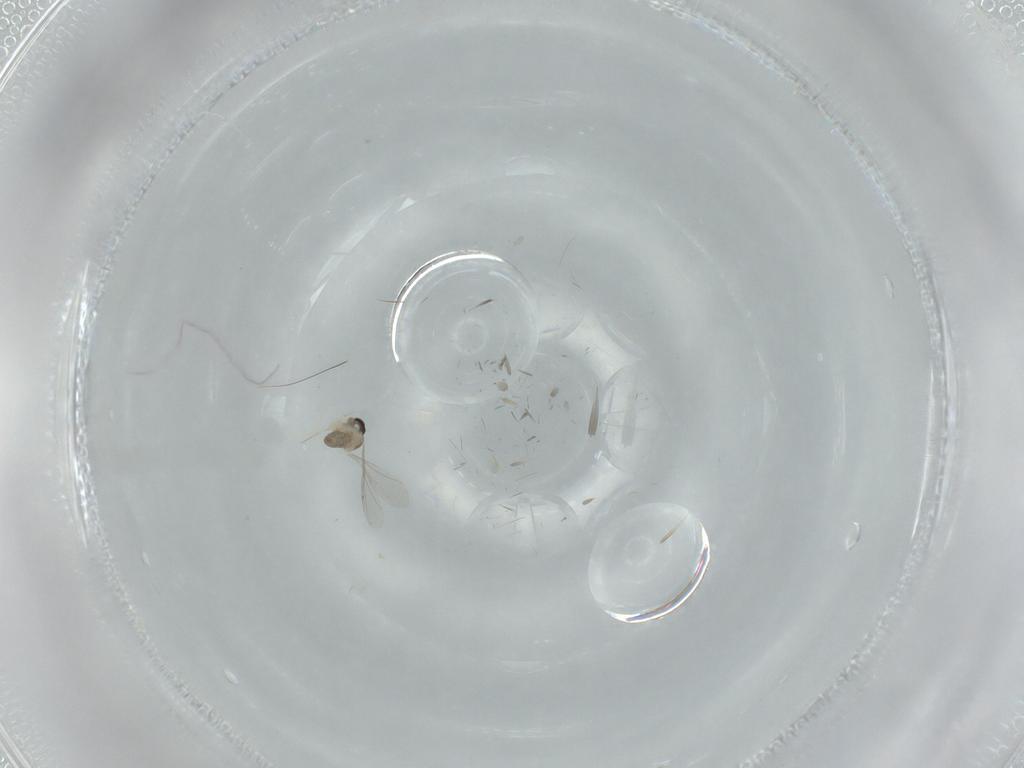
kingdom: Animalia
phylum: Arthropoda
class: Insecta
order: Diptera
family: Cecidomyiidae
